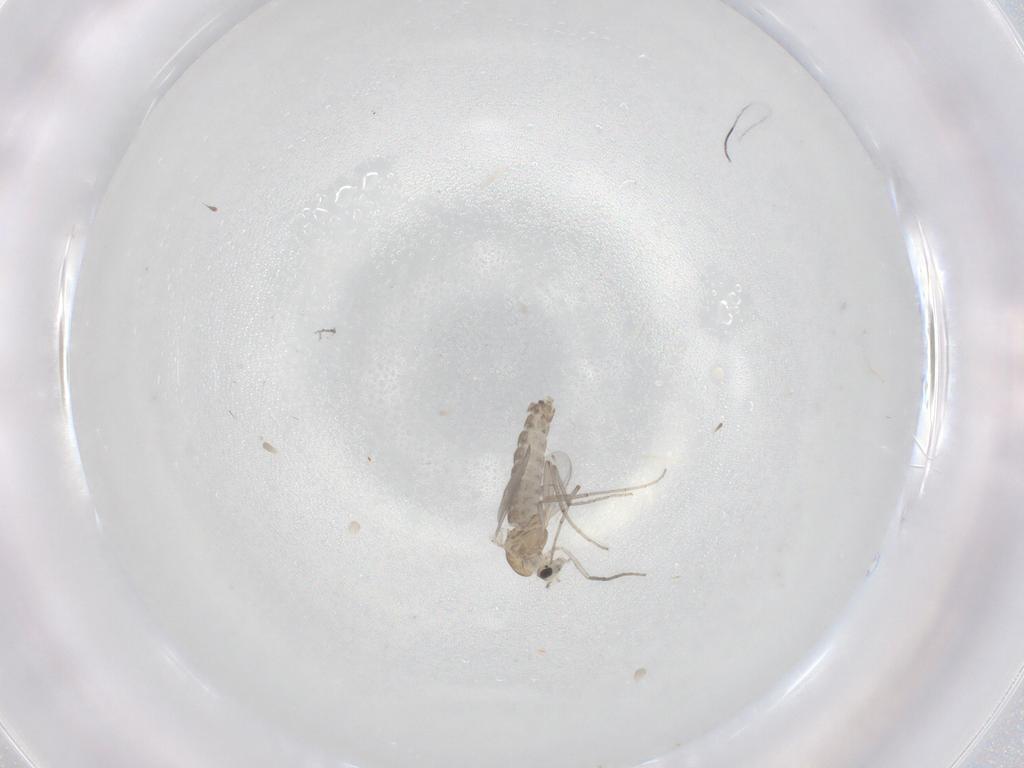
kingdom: Animalia
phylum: Arthropoda
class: Insecta
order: Diptera
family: Chironomidae
